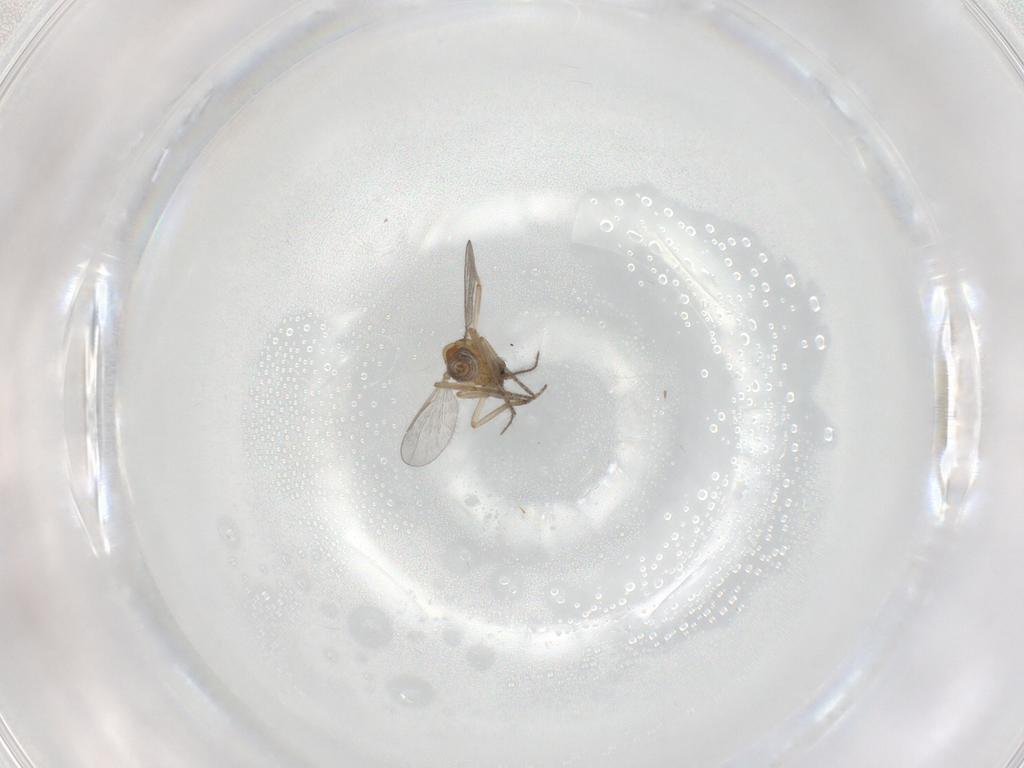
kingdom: Animalia
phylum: Arthropoda
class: Insecta
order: Diptera
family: Ceratopogonidae
